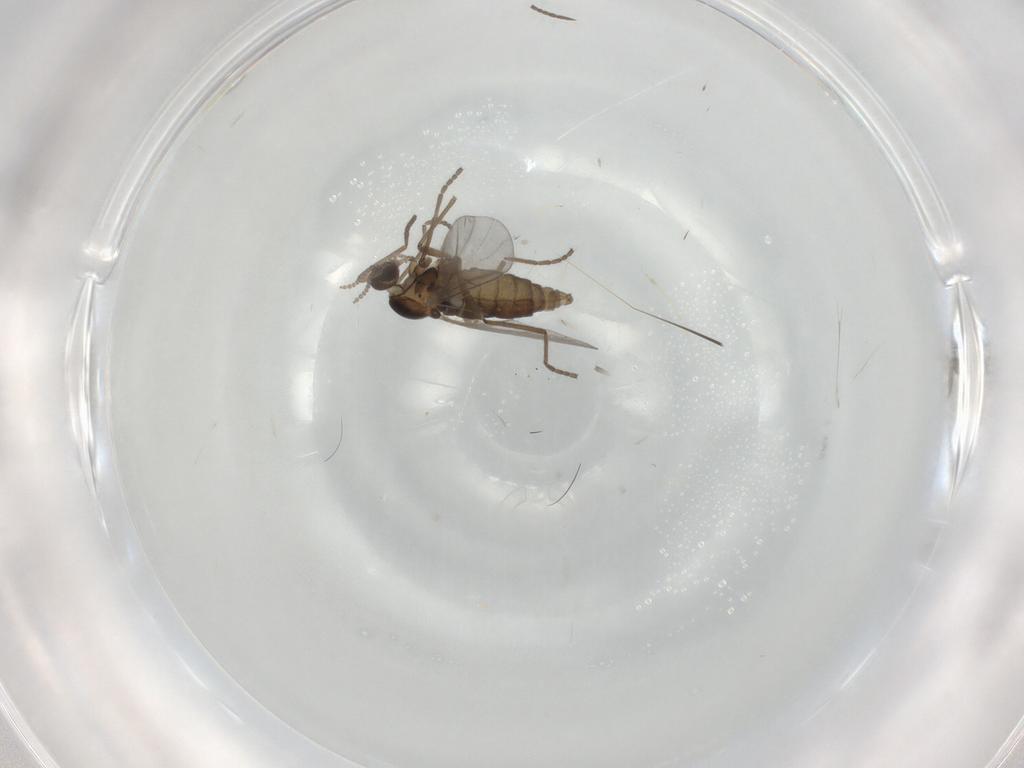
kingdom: Animalia
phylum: Arthropoda
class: Insecta
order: Diptera
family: Cecidomyiidae
